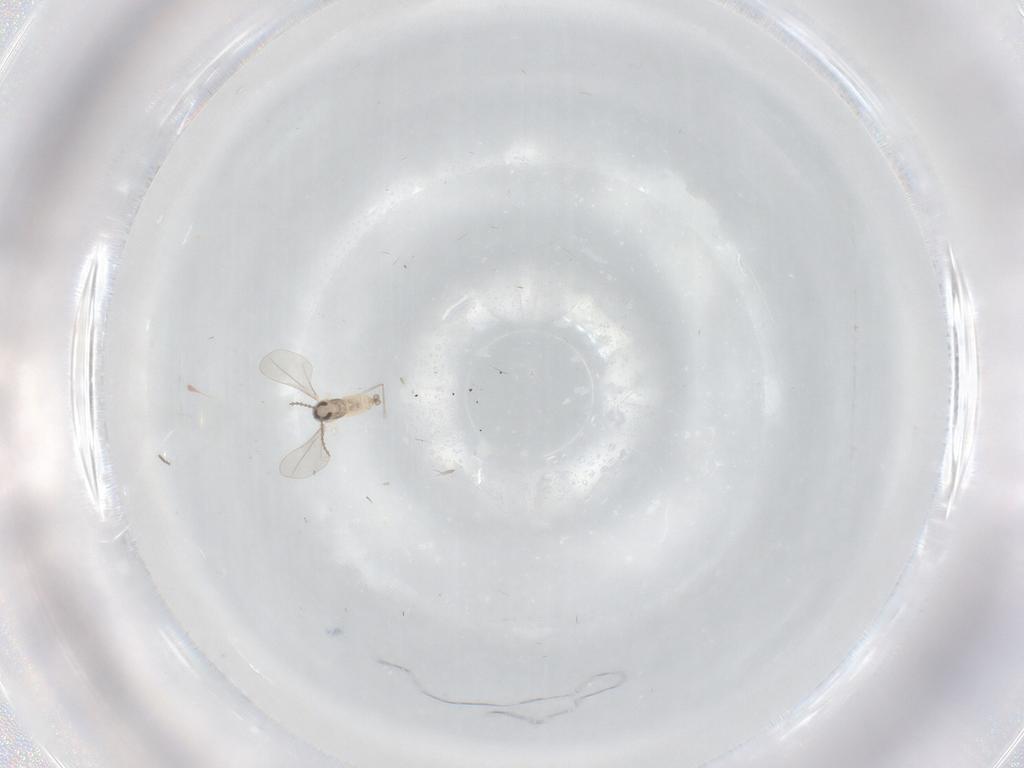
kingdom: Animalia
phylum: Arthropoda
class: Insecta
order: Diptera
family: Cecidomyiidae
